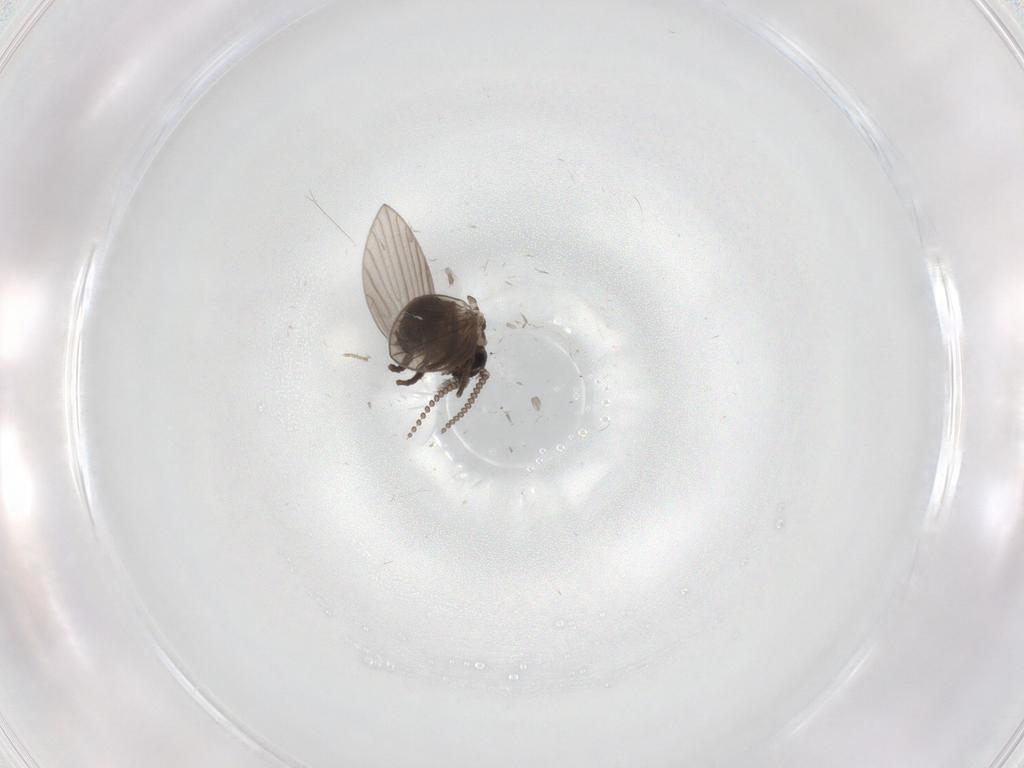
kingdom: Animalia
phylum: Arthropoda
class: Insecta
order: Diptera
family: Psychodidae
